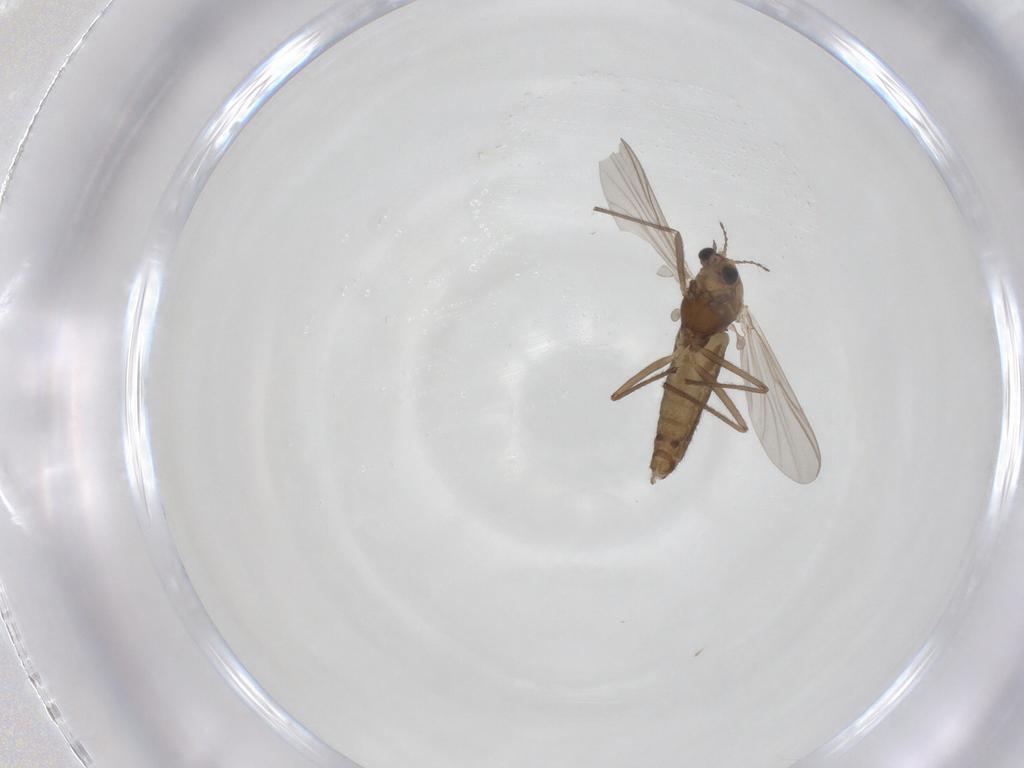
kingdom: Animalia
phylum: Arthropoda
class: Insecta
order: Diptera
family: Chironomidae
